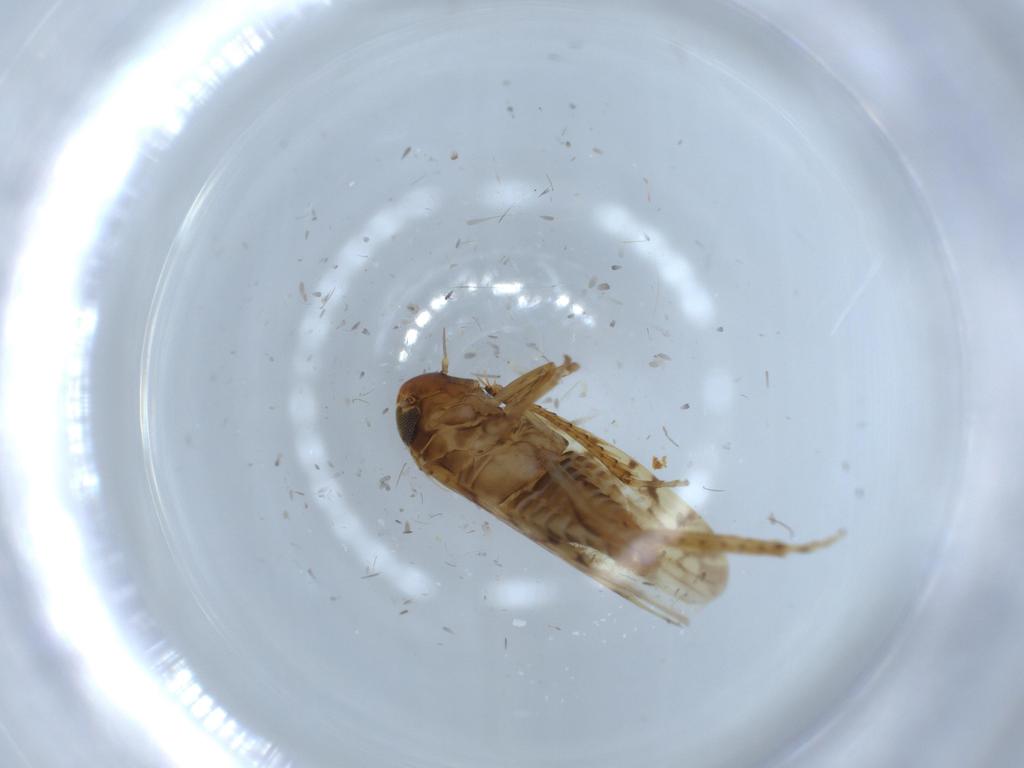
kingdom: Animalia
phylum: Arthropoda
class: Insecta
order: Hemiptera
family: Cicadellidae
